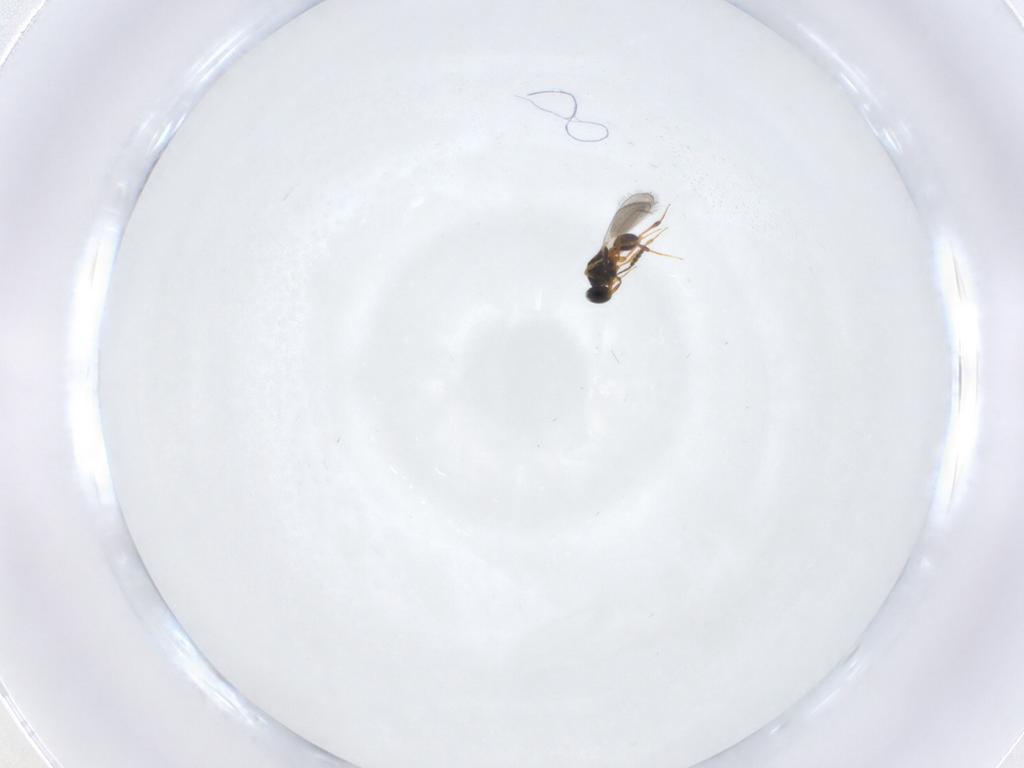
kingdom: Animalia
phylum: Arthropoda
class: Insecta
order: Hymenoptera
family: Platygastridae
